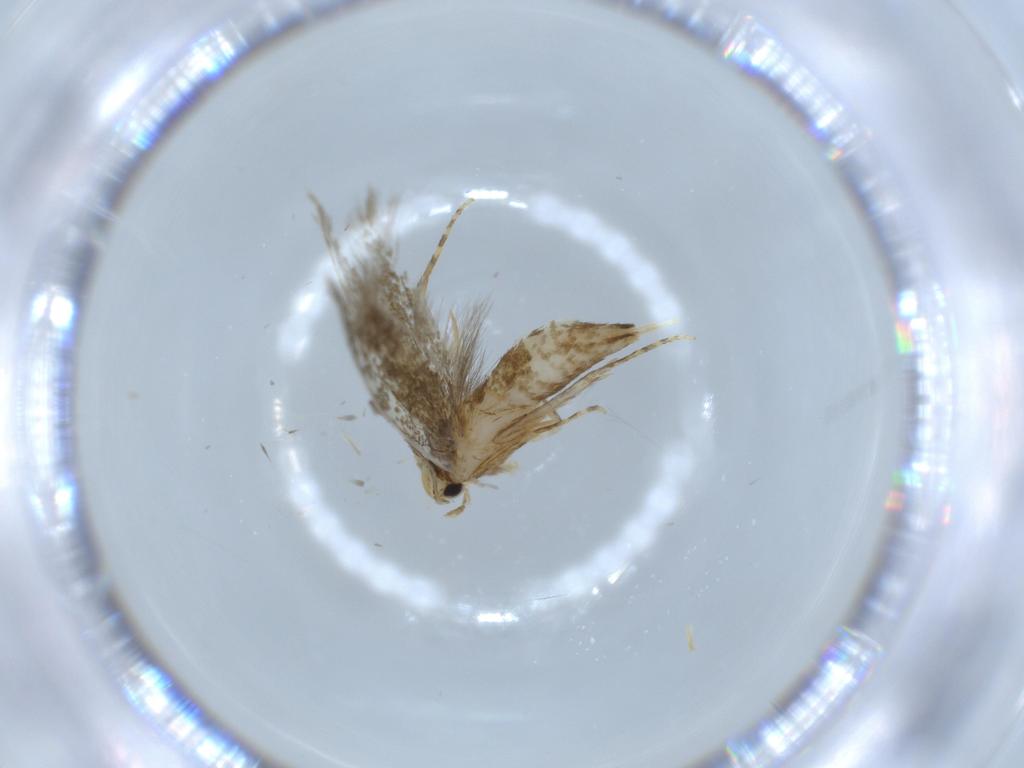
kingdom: Animalia
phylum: Arthropoda
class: Insecta
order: Lepidoptera
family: Tineidae
